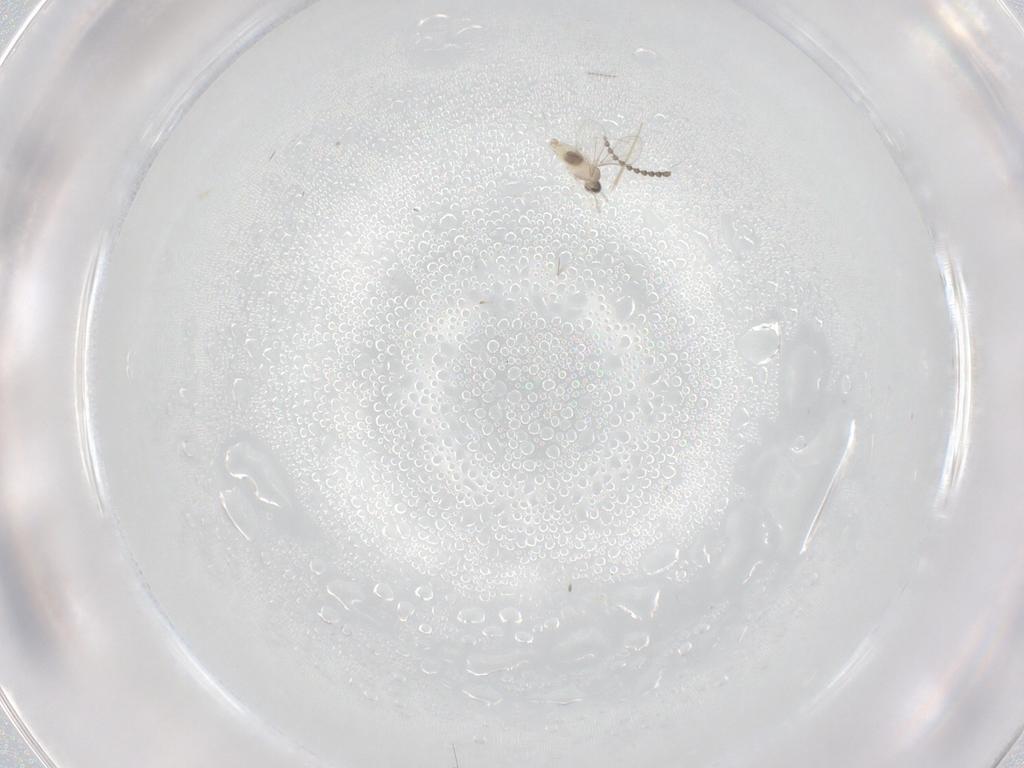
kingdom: Animalia
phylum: Arthropoda
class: Insecta
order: Diptera
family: Cecidomyiidae
